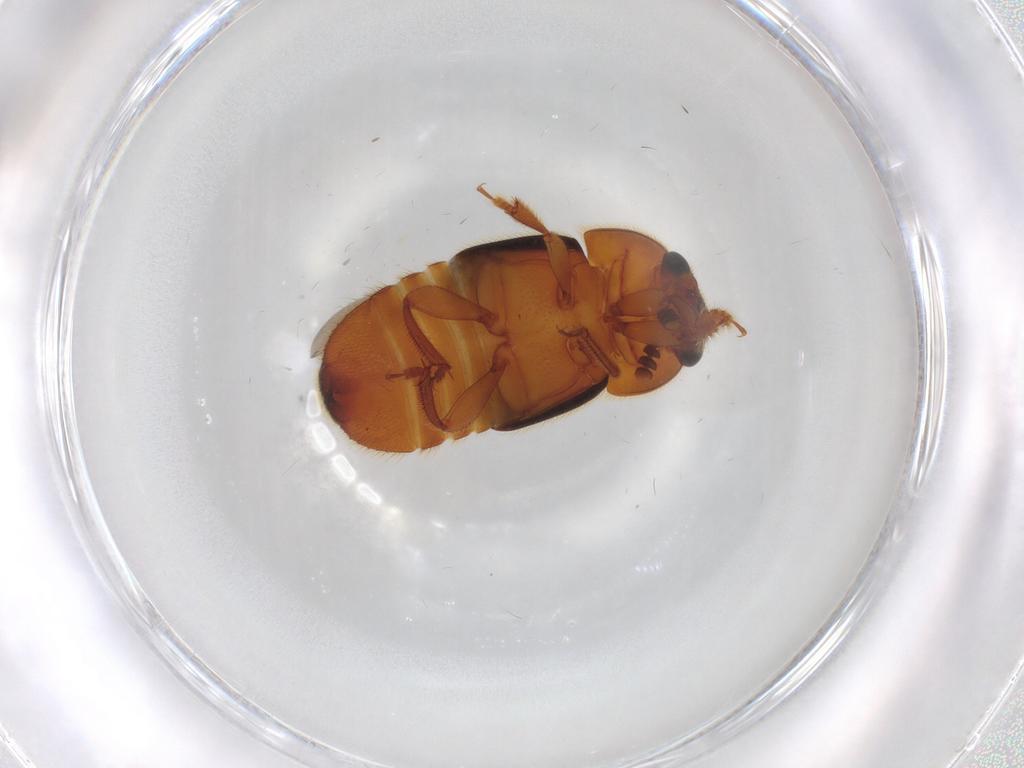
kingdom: Animalia
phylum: Arthropoda
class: Insecta
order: Coleoptera
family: Nitidulidae
